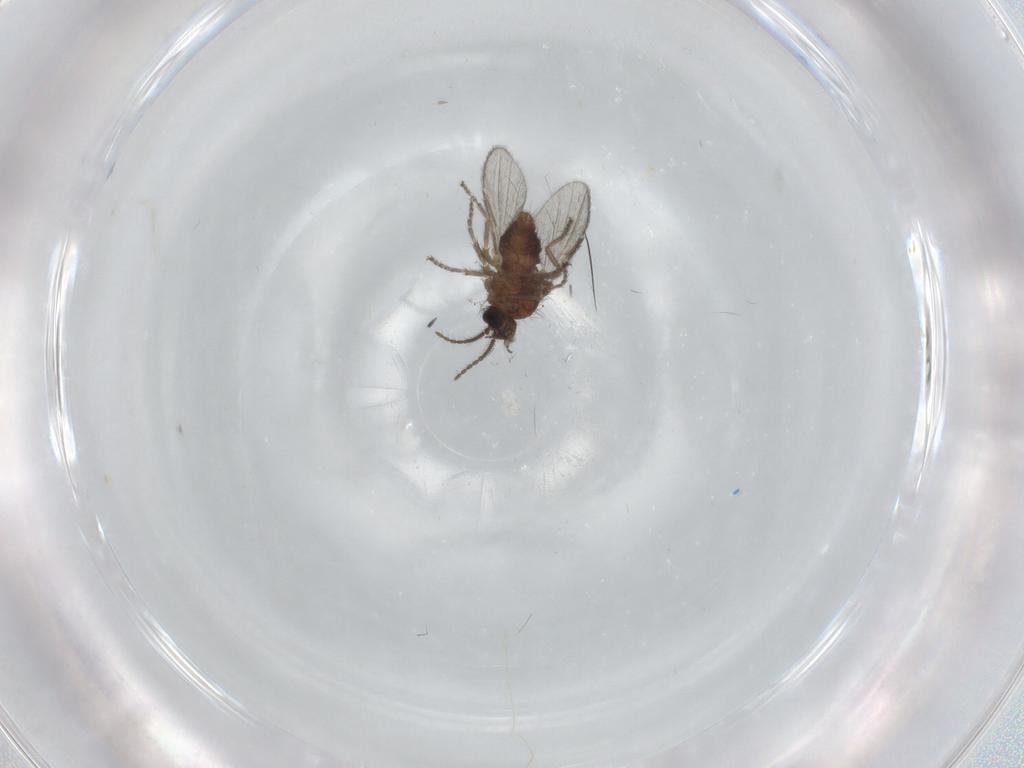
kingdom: Animalia
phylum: Arthropoda
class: Insecta
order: Diptera
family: Ceratopogonidae
